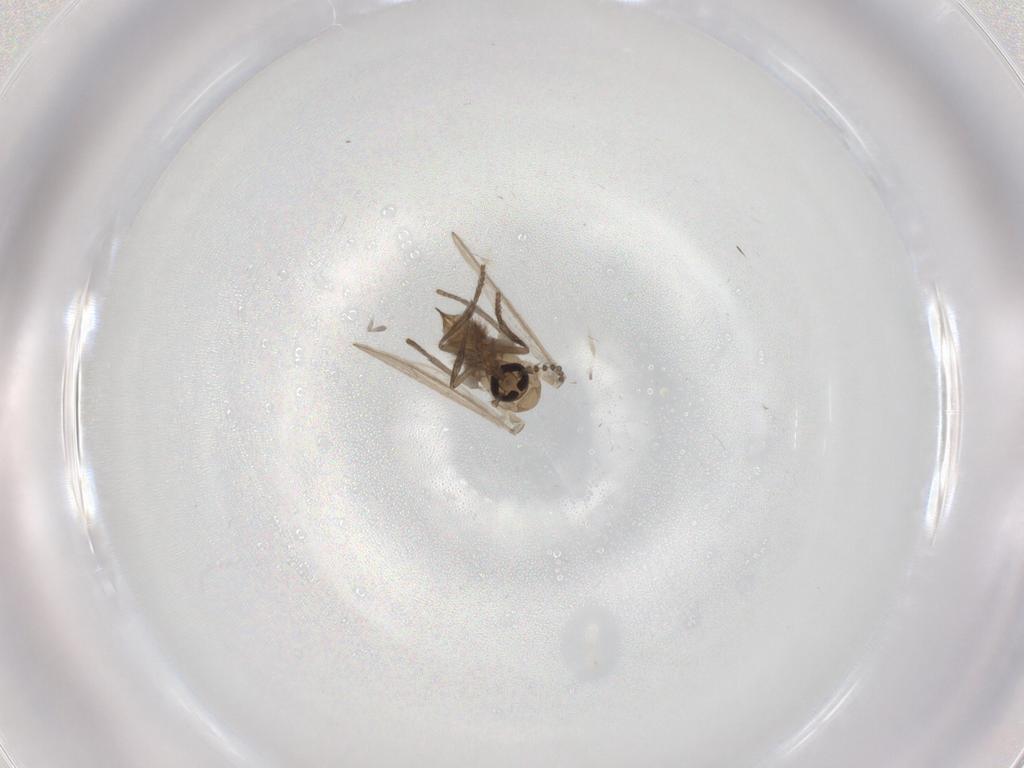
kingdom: Animalia
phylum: Arthropoda
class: Insecta
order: Diptera
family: Psychodidae
